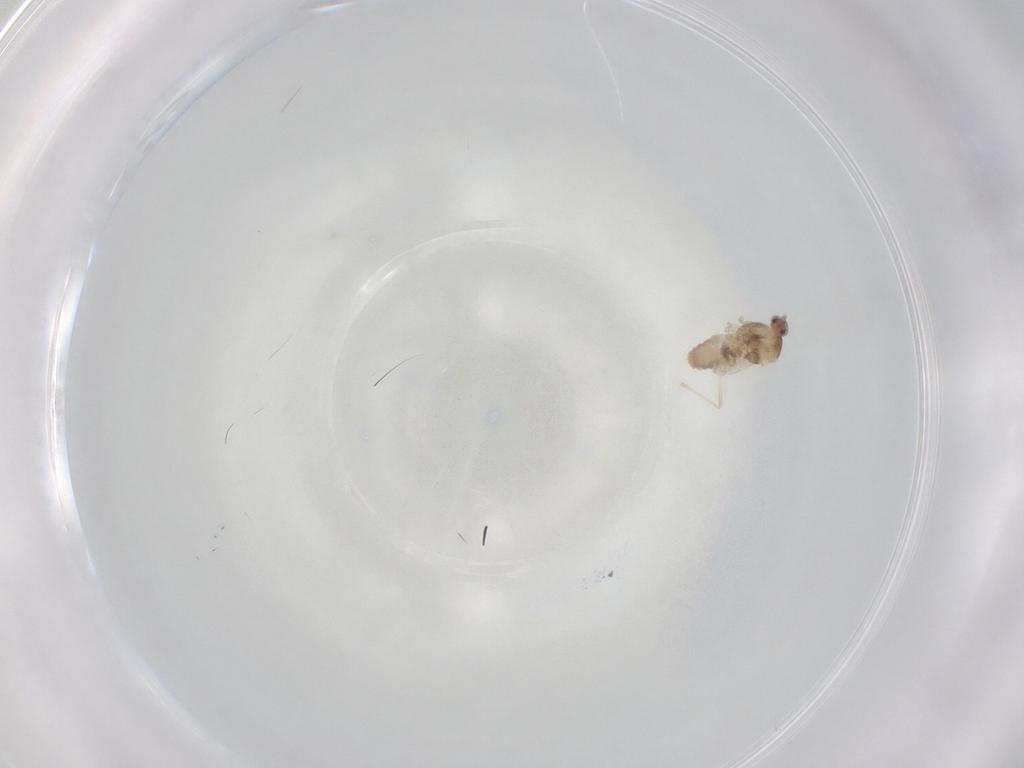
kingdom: Animalia
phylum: Arthropoda
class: Insecta
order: Diptera
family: Cecidomyiidae
